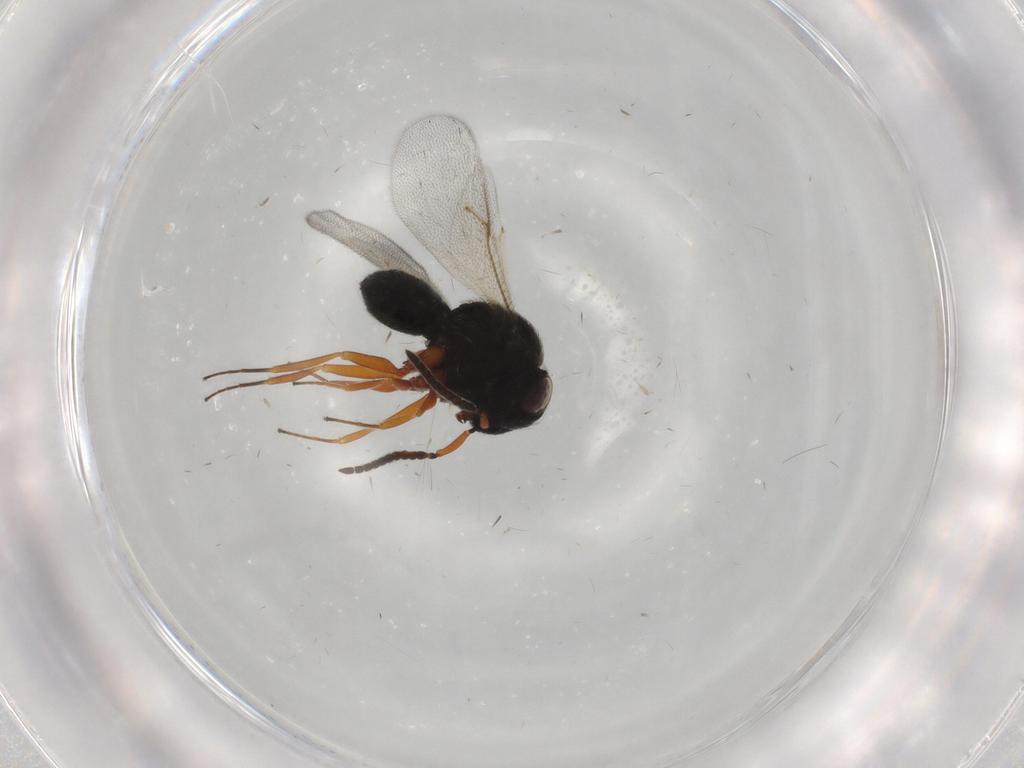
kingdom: Animalia
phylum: Arthropoda
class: Insecta
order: Hymenoptera
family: Scelionidae
